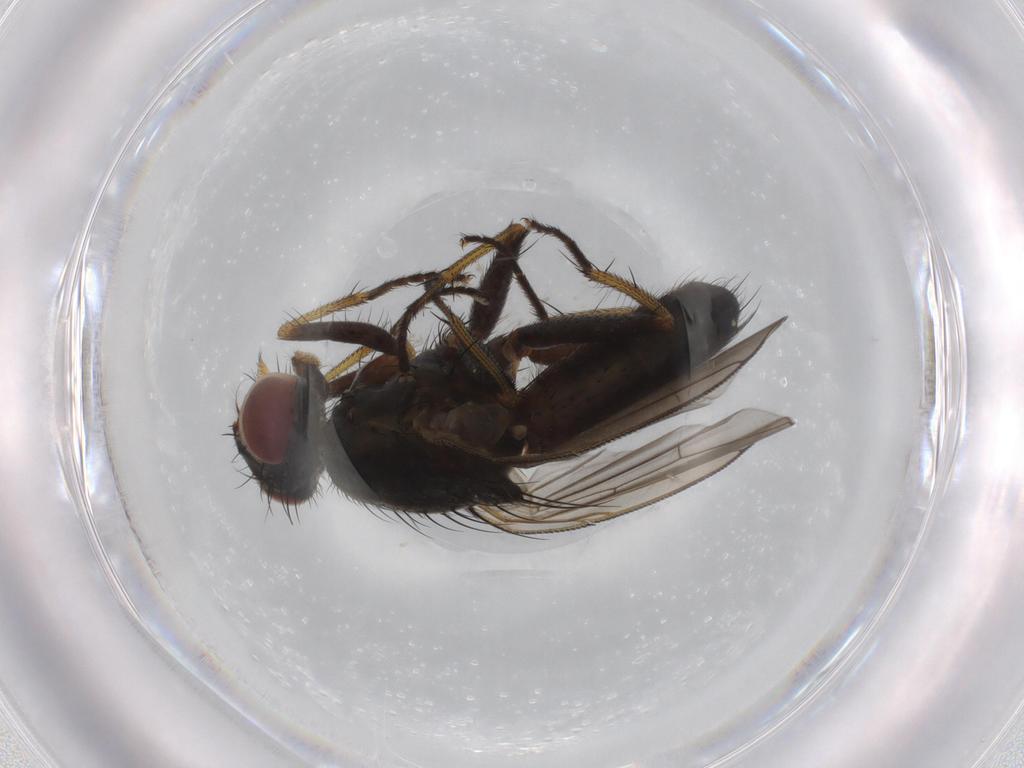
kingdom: Animalia
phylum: Arthropoda
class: Insecta
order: Diptera
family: Muscidae
